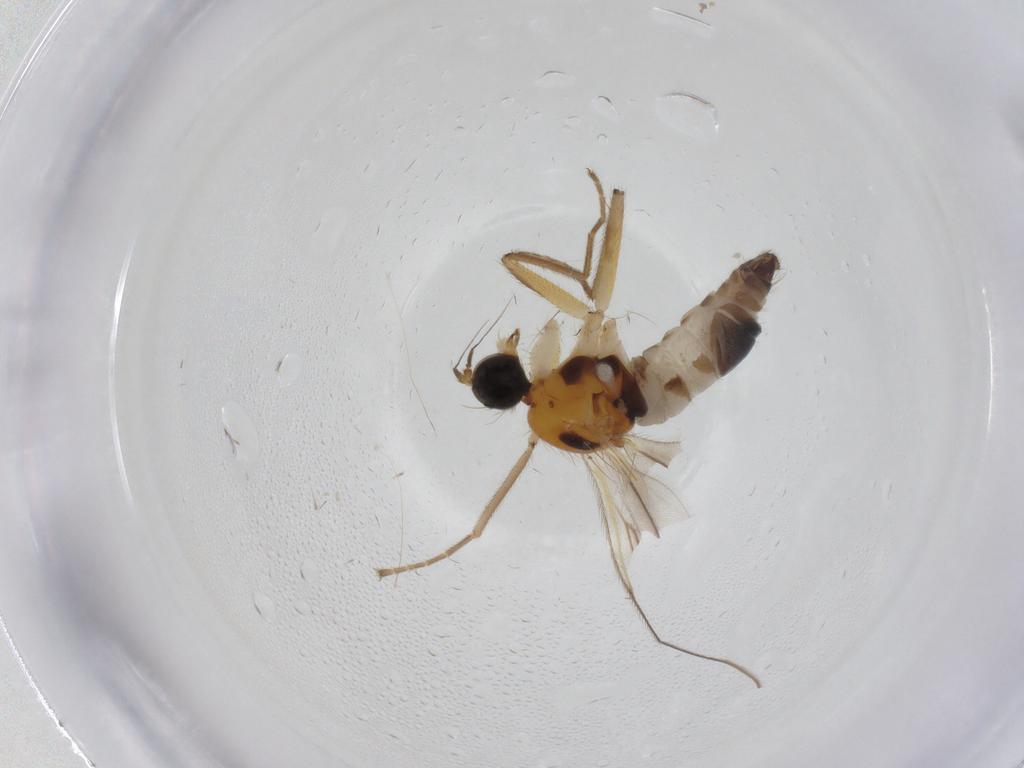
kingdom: Animalia
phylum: Arthropoda
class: Insecta
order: Diptera
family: Hybotidae
